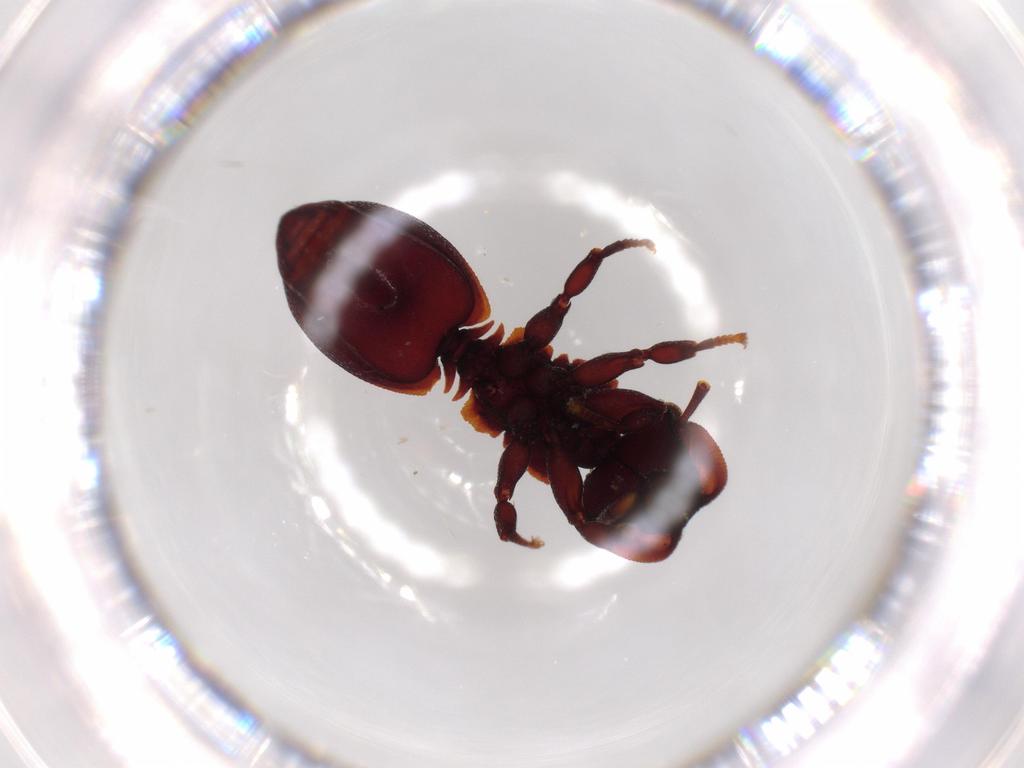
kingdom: Animalia
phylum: Arthropoda
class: Insecta
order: Hymenoptera
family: Formicidae
